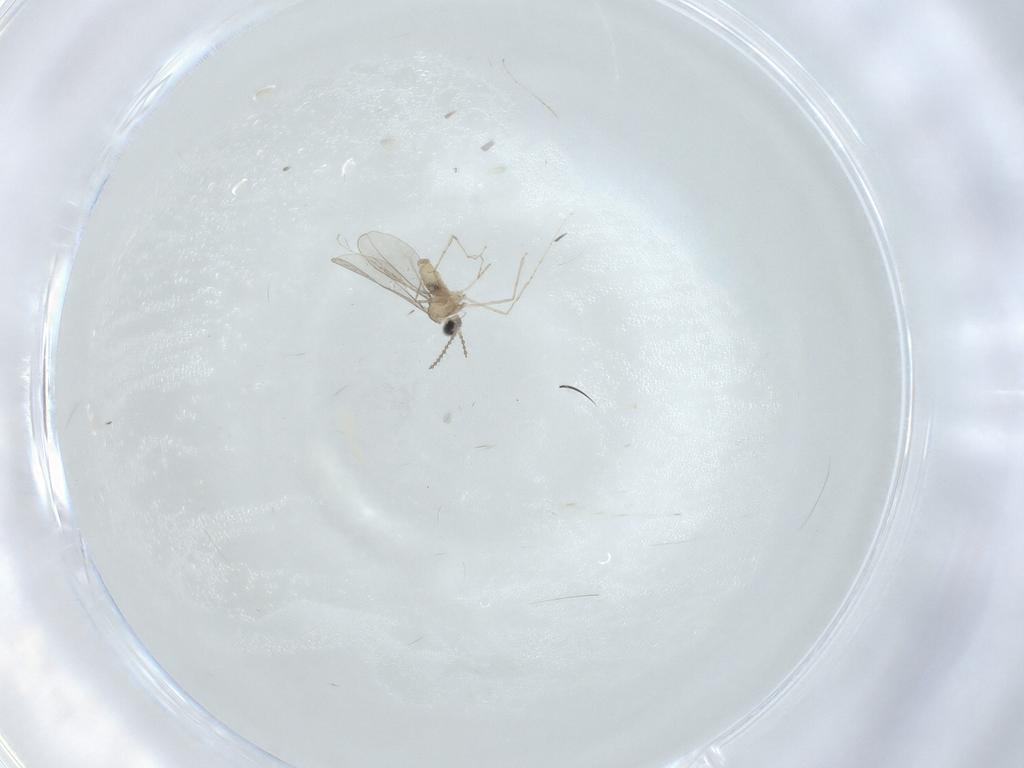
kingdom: Animalia
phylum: Arthropoda
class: Insecta
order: Diptera
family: Cecidomyiidae
